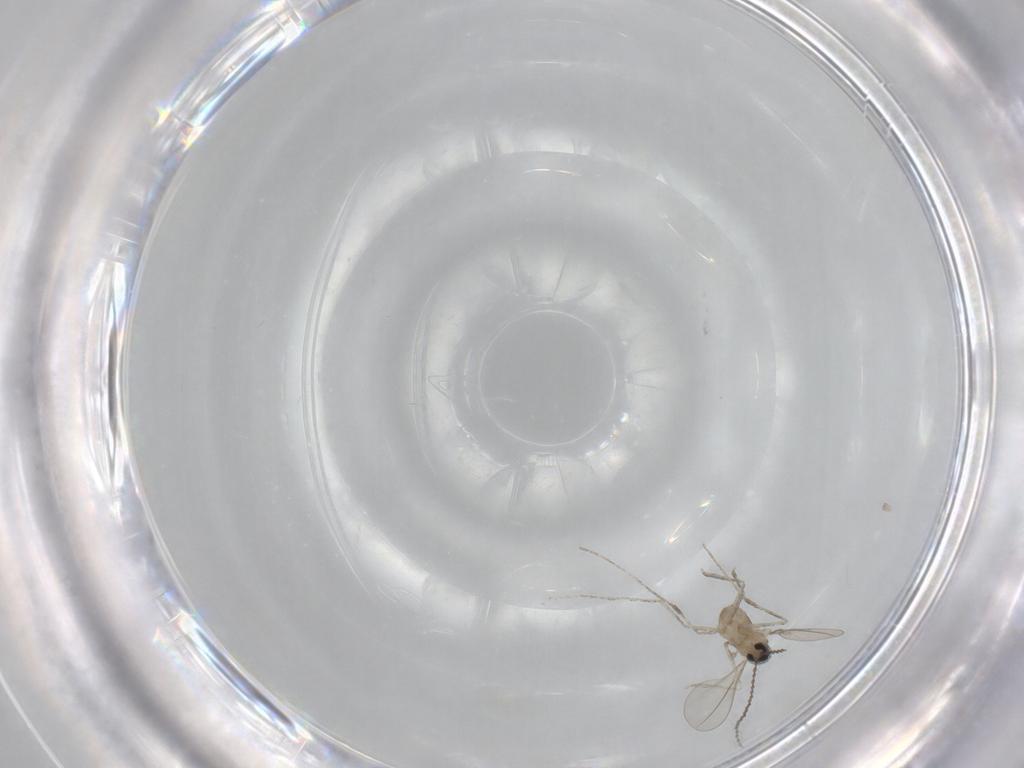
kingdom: Animalia
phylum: Arthropoda
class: Insecta
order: Diptera
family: Cecidomyiidae
